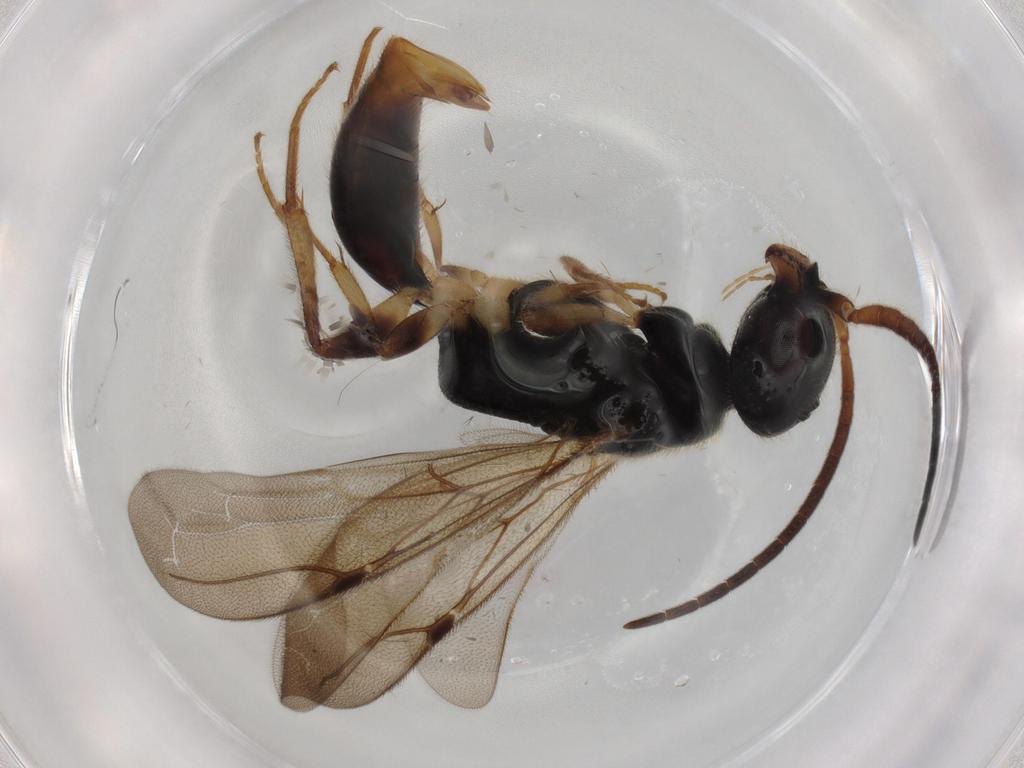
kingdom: Animalia
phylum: Arthropoda
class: Insecta
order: Hymenoptera
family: Bethylidae
